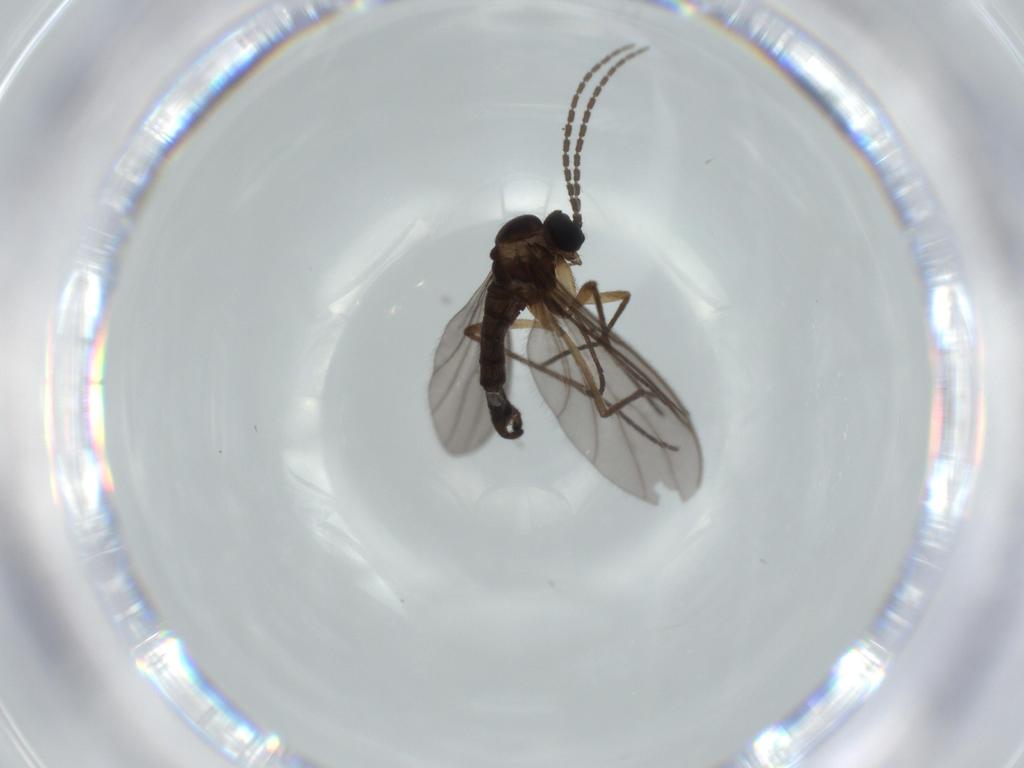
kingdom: Animalia
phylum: Arthropoda
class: Insecta
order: Diptera
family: Sciaridae
